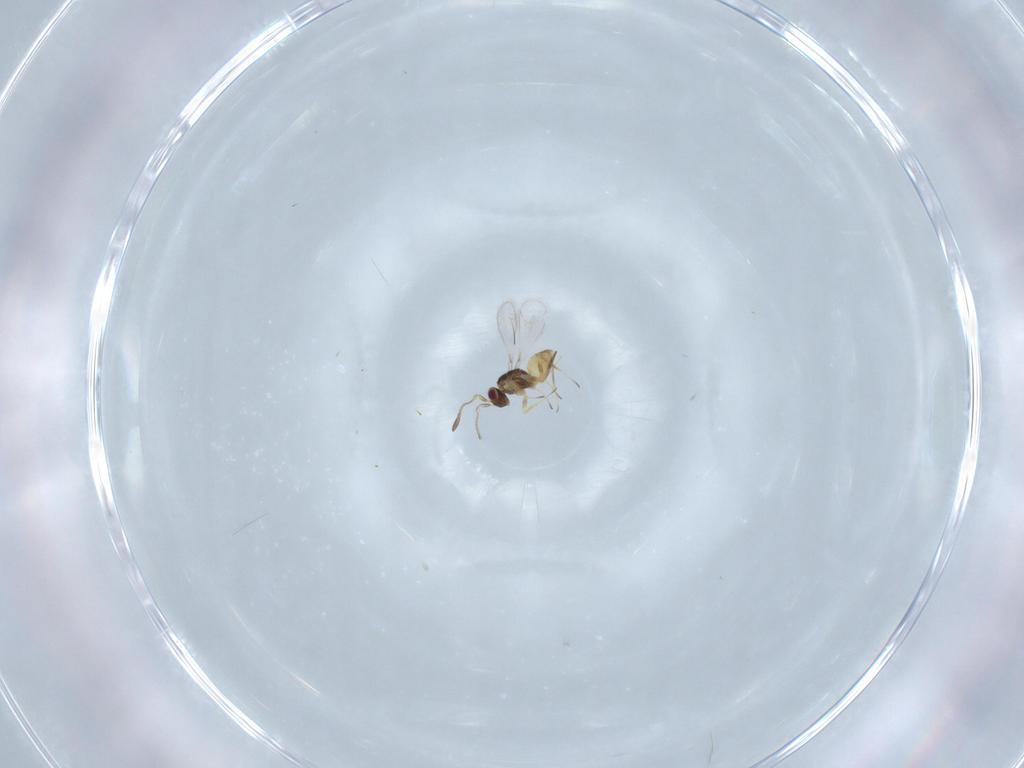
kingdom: Animalia
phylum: Arthropoda
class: Insecta
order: Hymenoptera
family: Mymaridae
